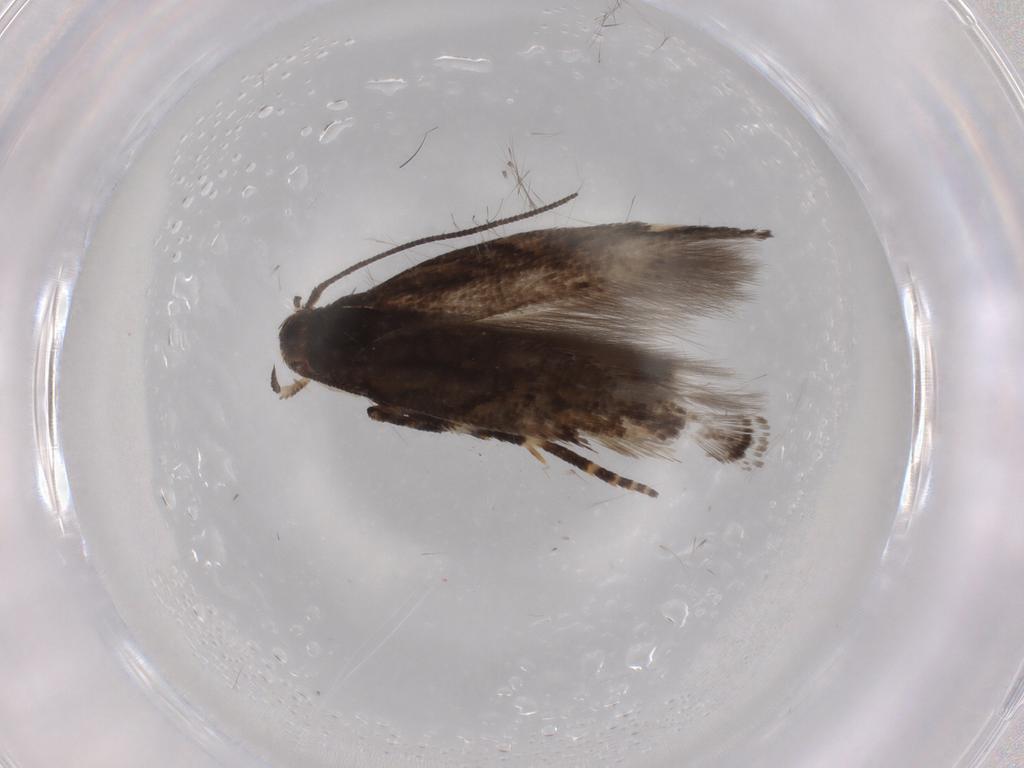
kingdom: Animalia
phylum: Arthropoda
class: Insecta
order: Lepidoptera
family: Momphidae
